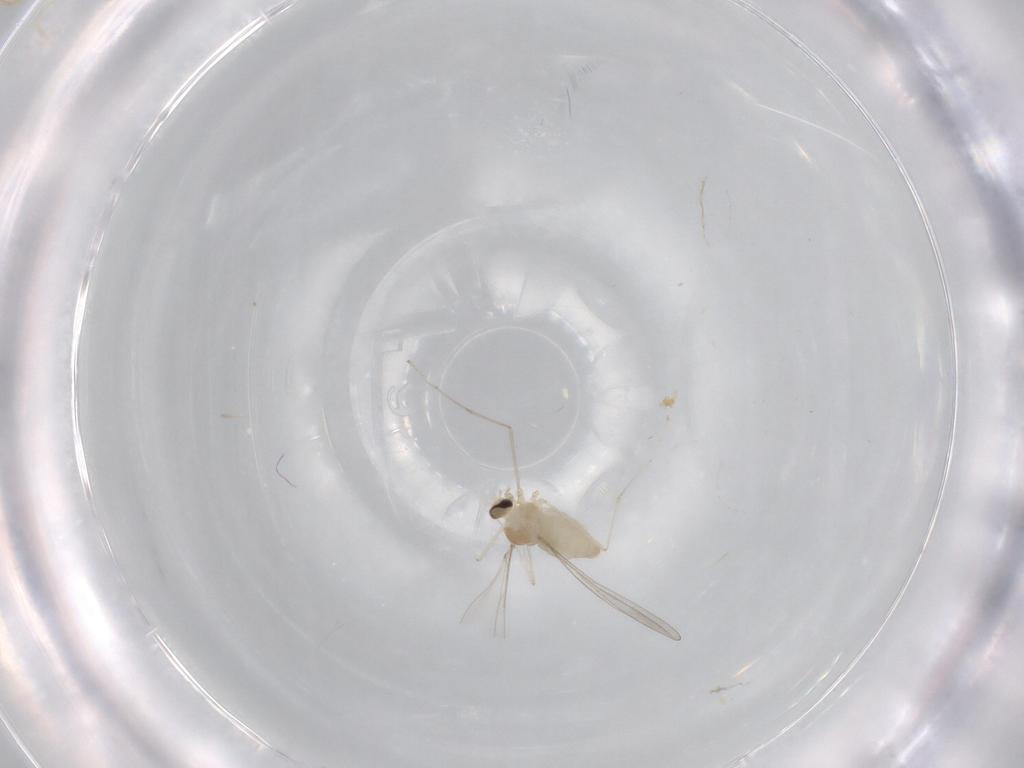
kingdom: Animalia
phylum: Arthropoda
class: Insecta
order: Diptera
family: Cecidomyiidae
